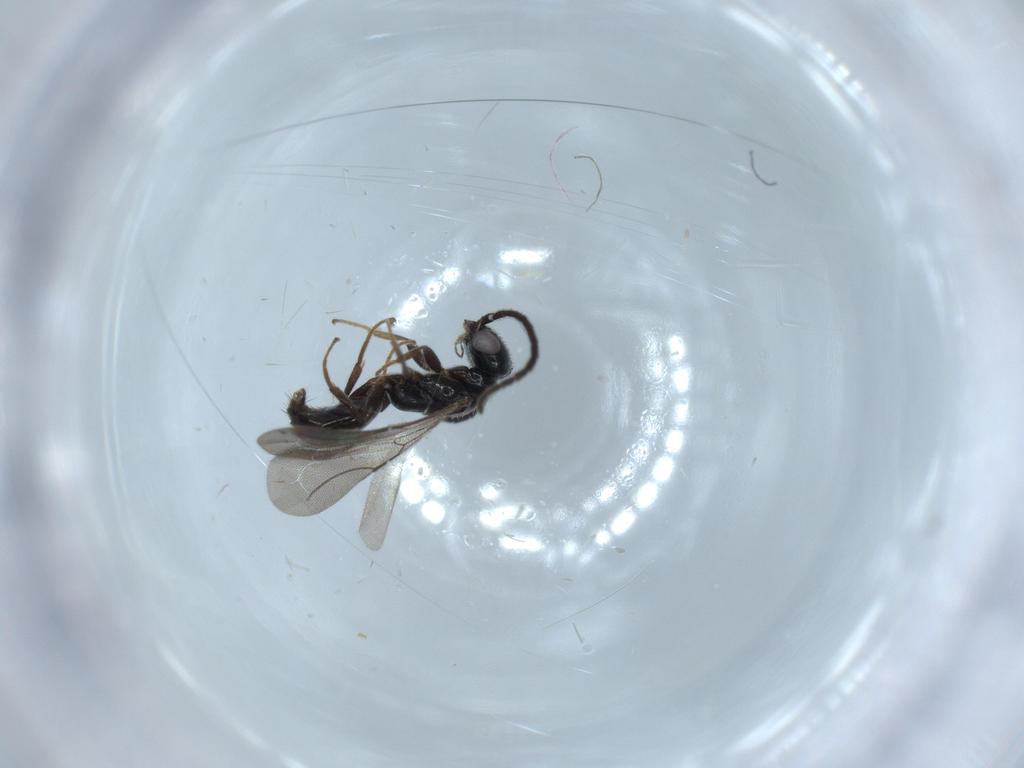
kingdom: Animalia
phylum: Arthropoda
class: Insecta
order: Hymenoptera
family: Bethylidae
